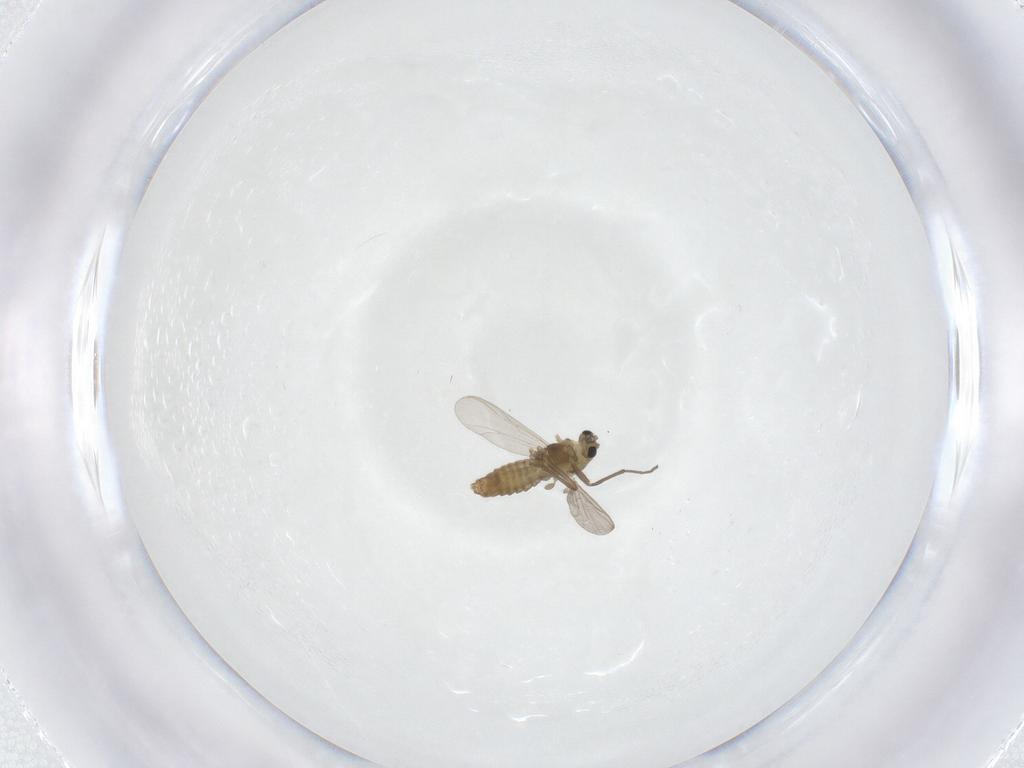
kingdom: Animalia
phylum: Arthropoda
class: Insecta
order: Diptera
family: Chironomidae
